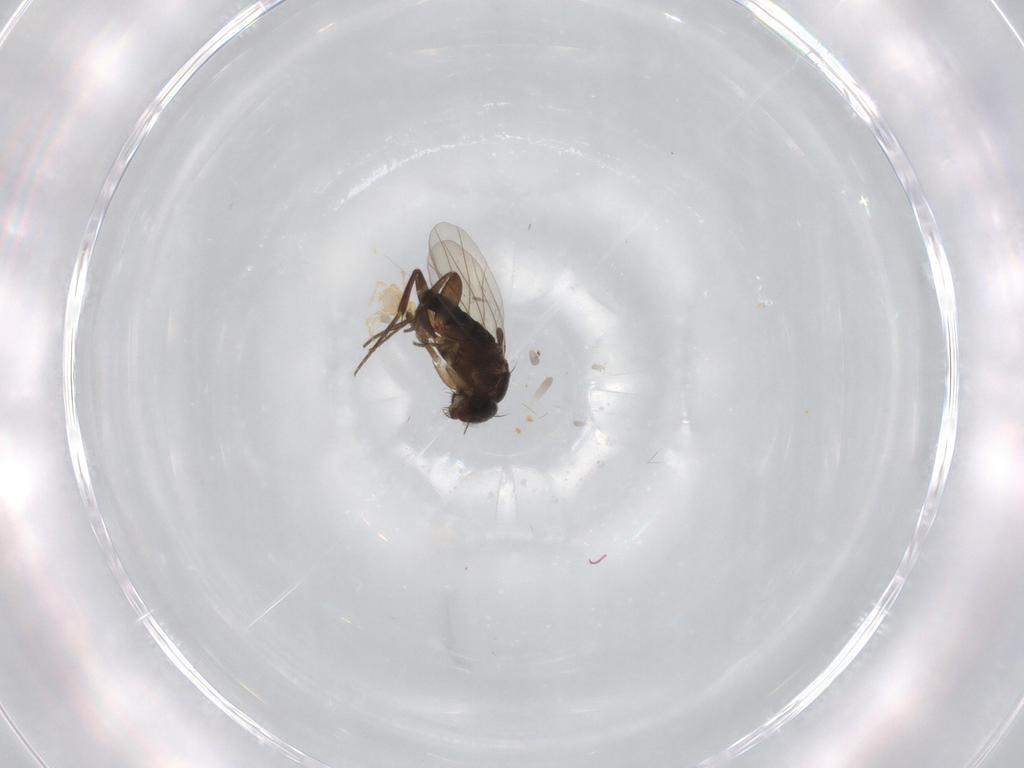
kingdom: Animalia
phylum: Arthropoda
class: Insecta
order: Diptera
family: Phoridae
